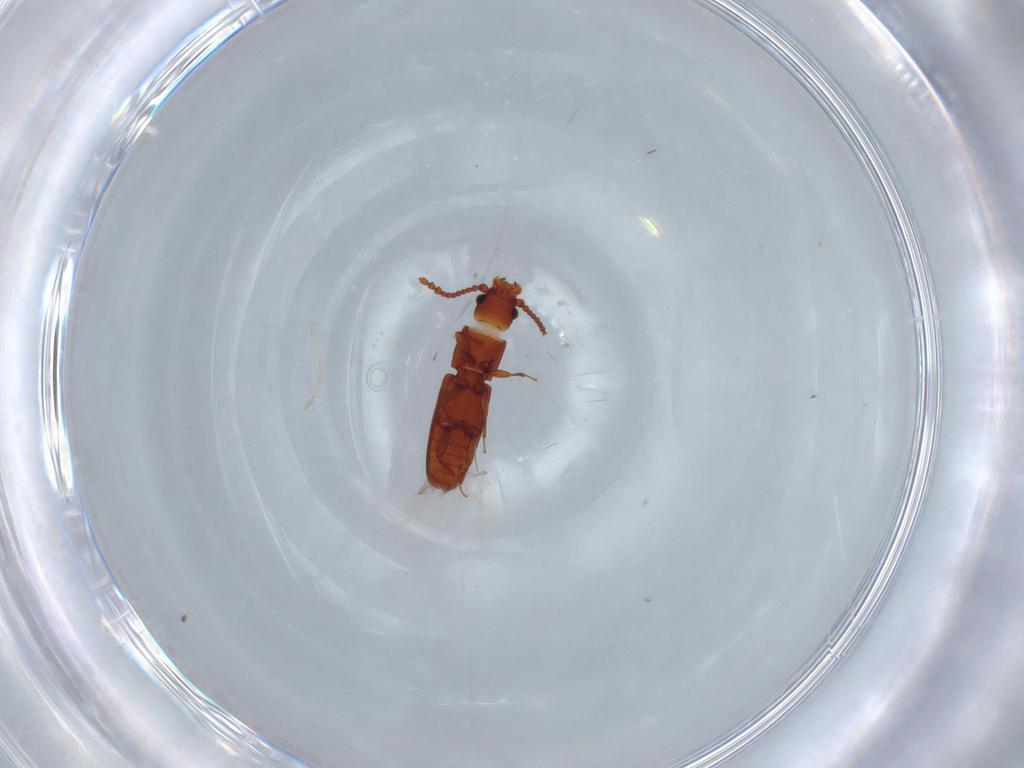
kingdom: Animalia
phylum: Arthropoda
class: Insecta
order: Coleoptera
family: Ptinidae
